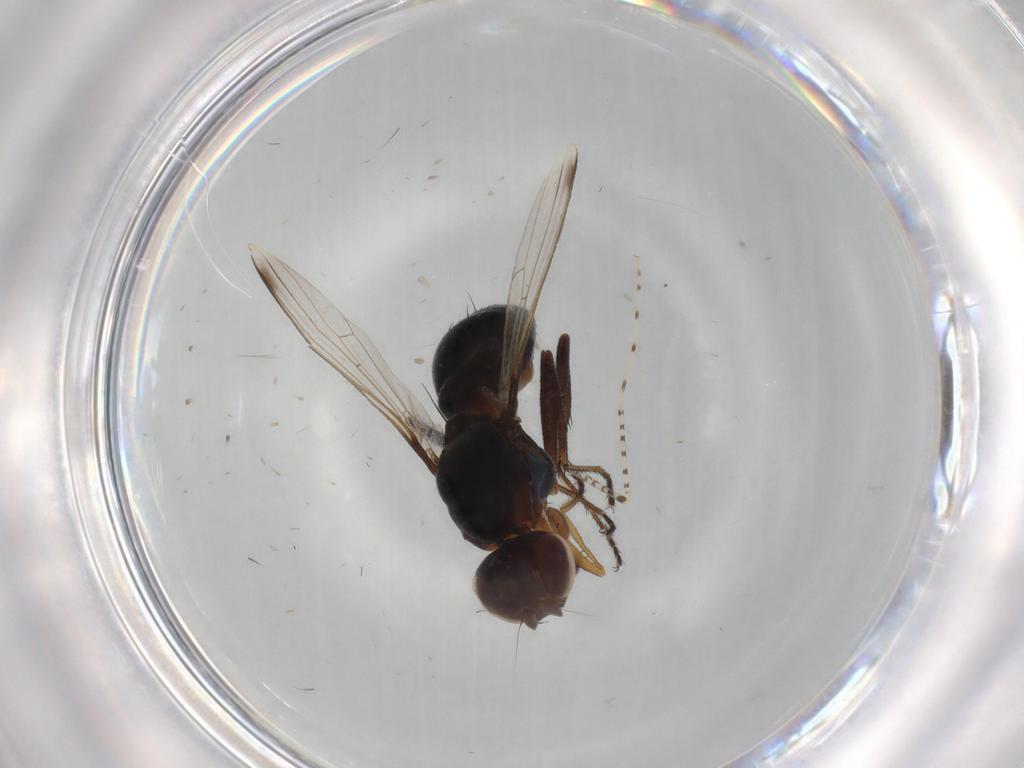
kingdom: Animalia
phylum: Arthropoda
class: Insecta
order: Diptera
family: Sepsidae
